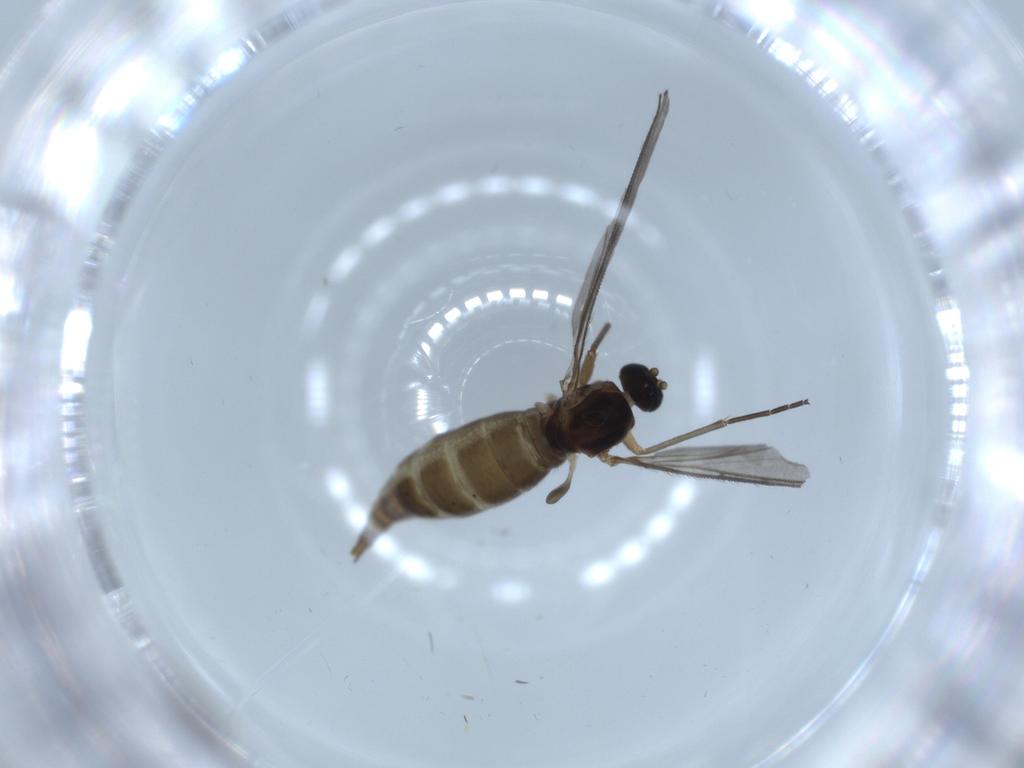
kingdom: Animalia
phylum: Arthropoda
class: Insecta
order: Diptera
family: Sciaridae
